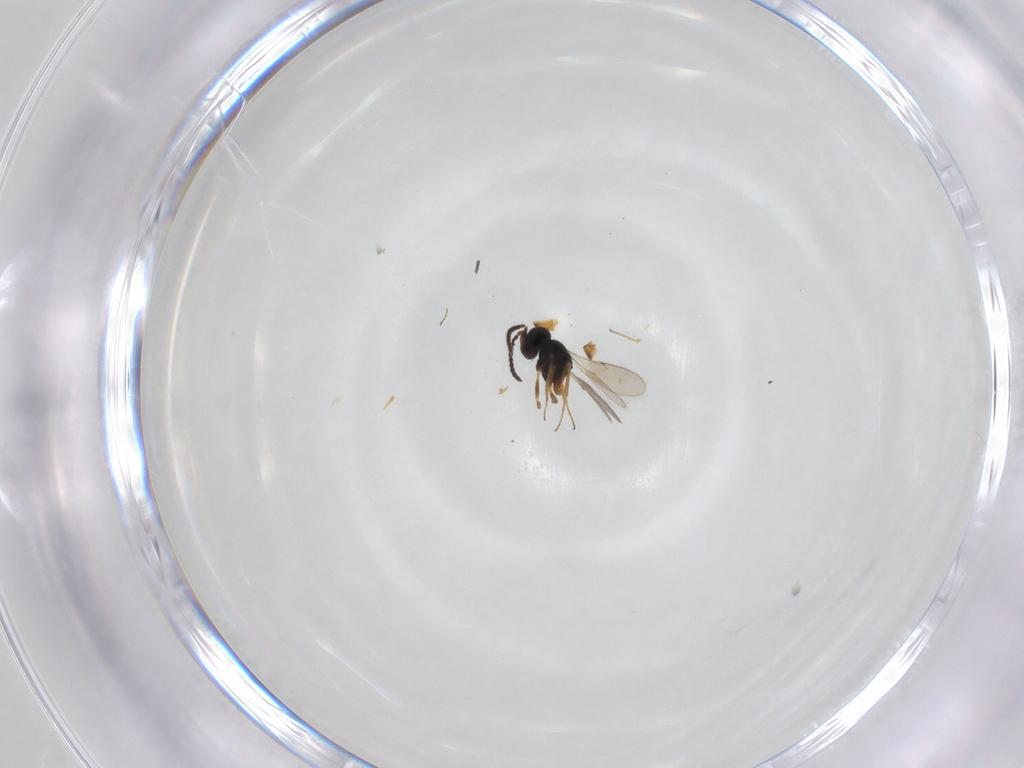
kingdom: Animalia
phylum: Arthropoda
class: Insecta
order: Hymenoptera
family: Scelionidae
